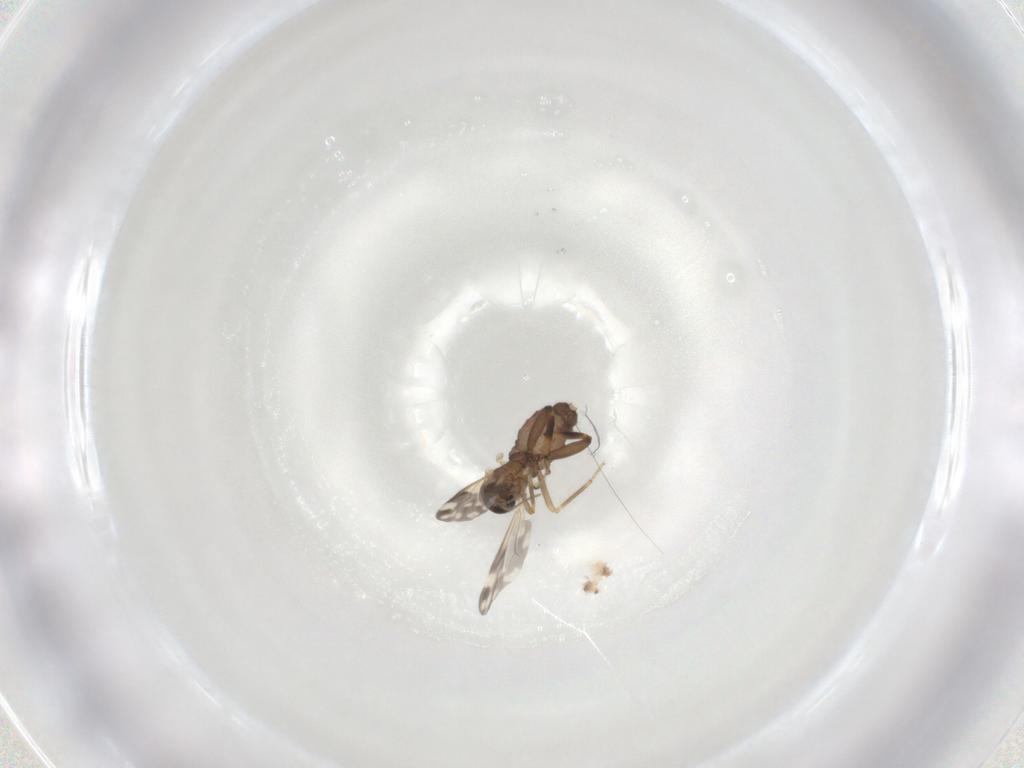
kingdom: Animalia
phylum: Arthropoda
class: Insecta
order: Diptera
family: Ceratopogonidae
